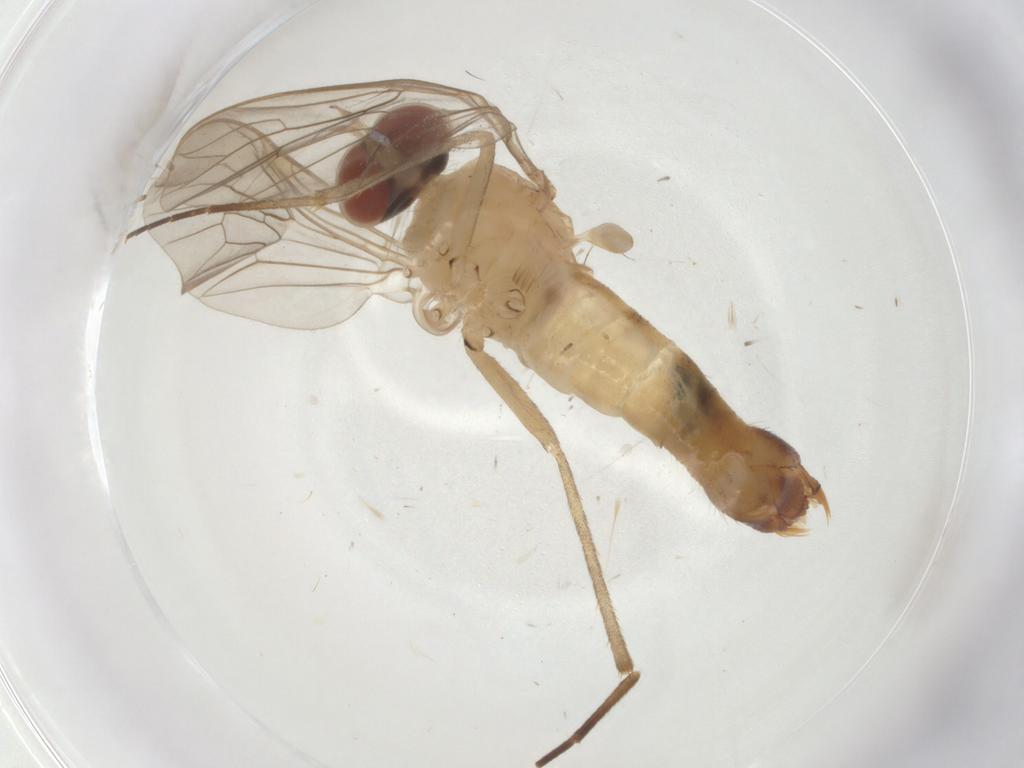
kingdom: Animalia
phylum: Arthropoda
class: Insecta
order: Diptera
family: Apsilocephalidae
